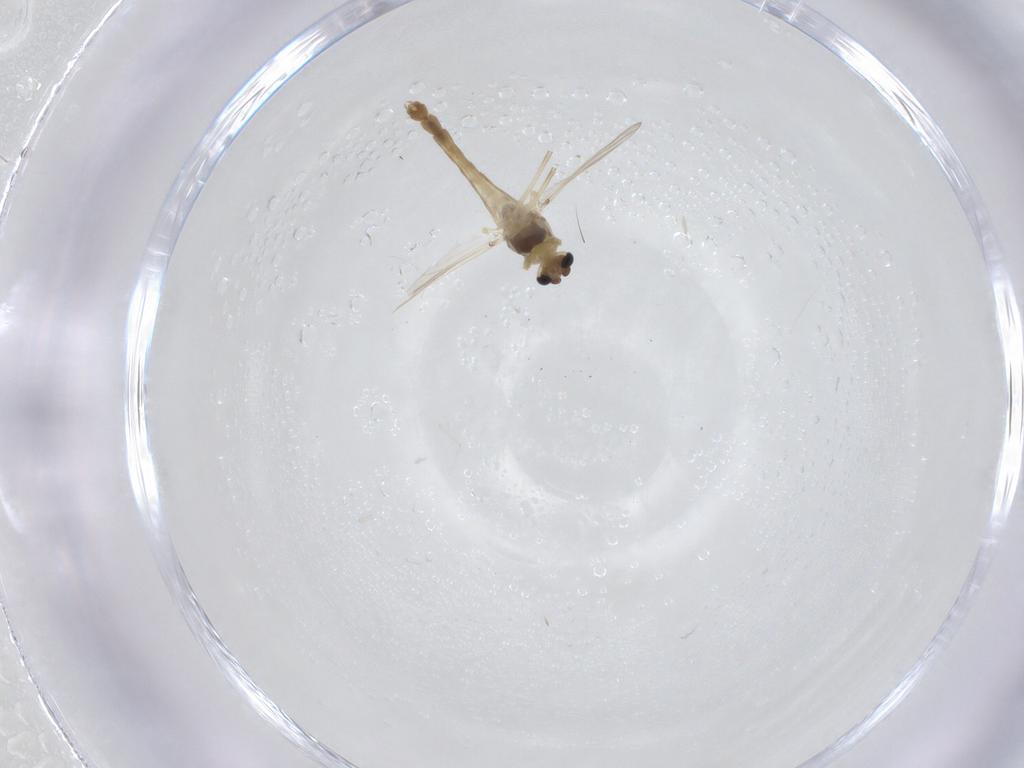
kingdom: Animalia
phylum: Arthropoda
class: Insecta
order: Diptera
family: Chironomidae
